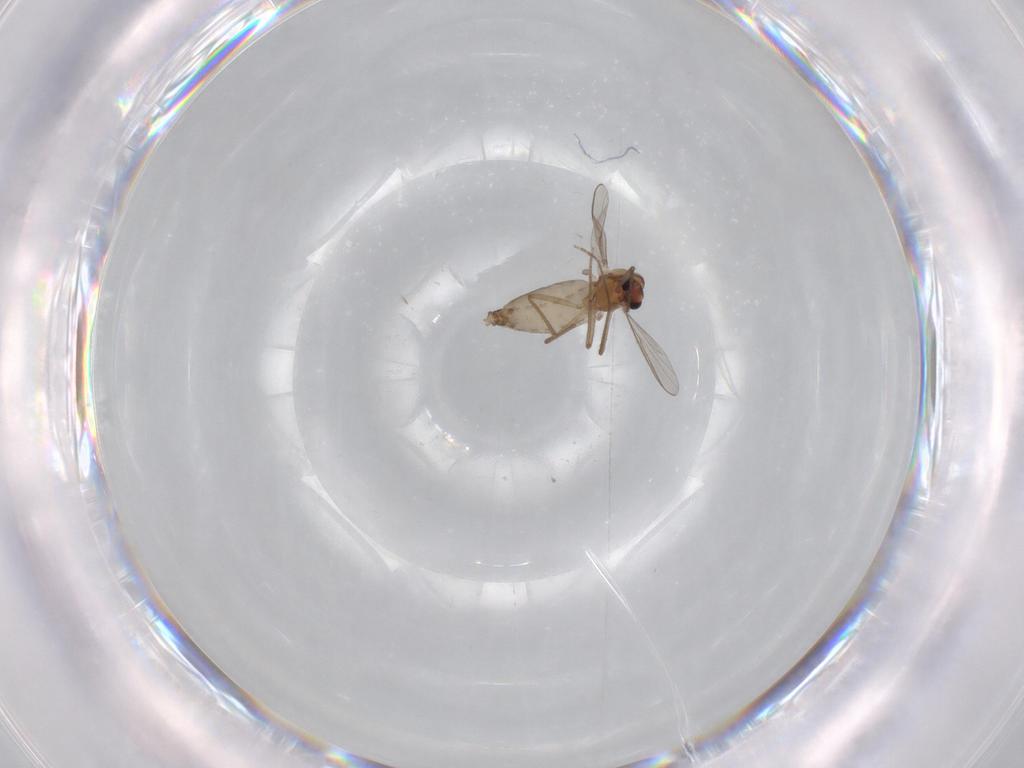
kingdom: Animalia
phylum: Arthropoda
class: Insecta
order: Diptera
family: Chironomidae
